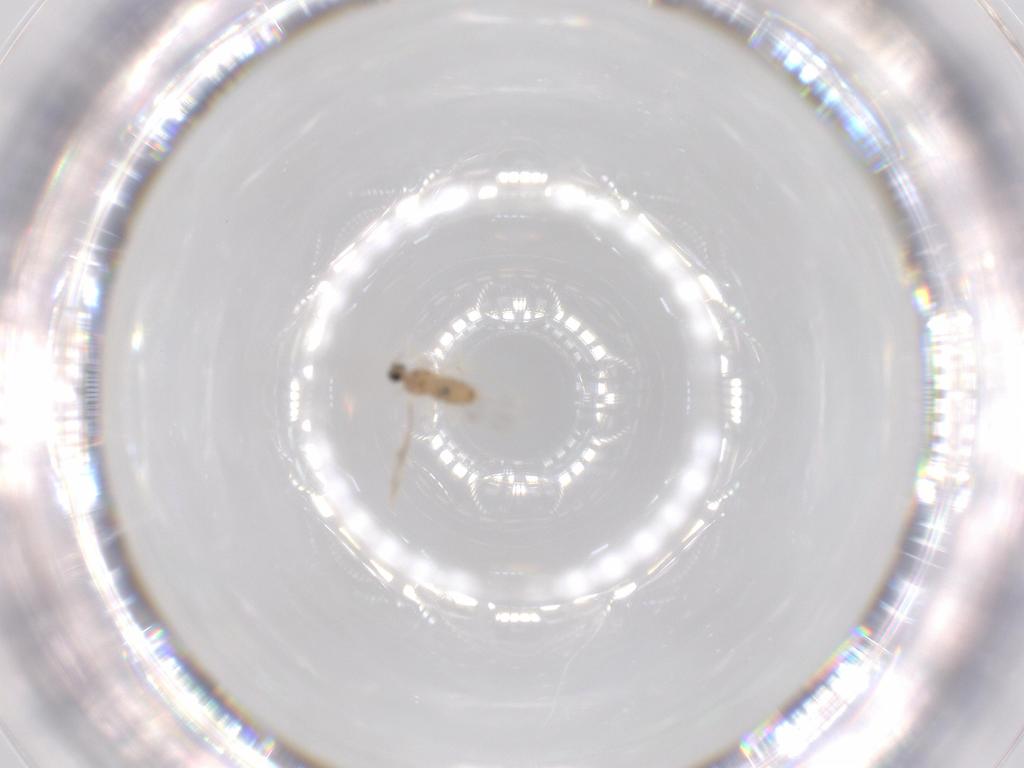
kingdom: Animalia
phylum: Arthropoda
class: Insecta
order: Diptera
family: Cecidomyiidae
